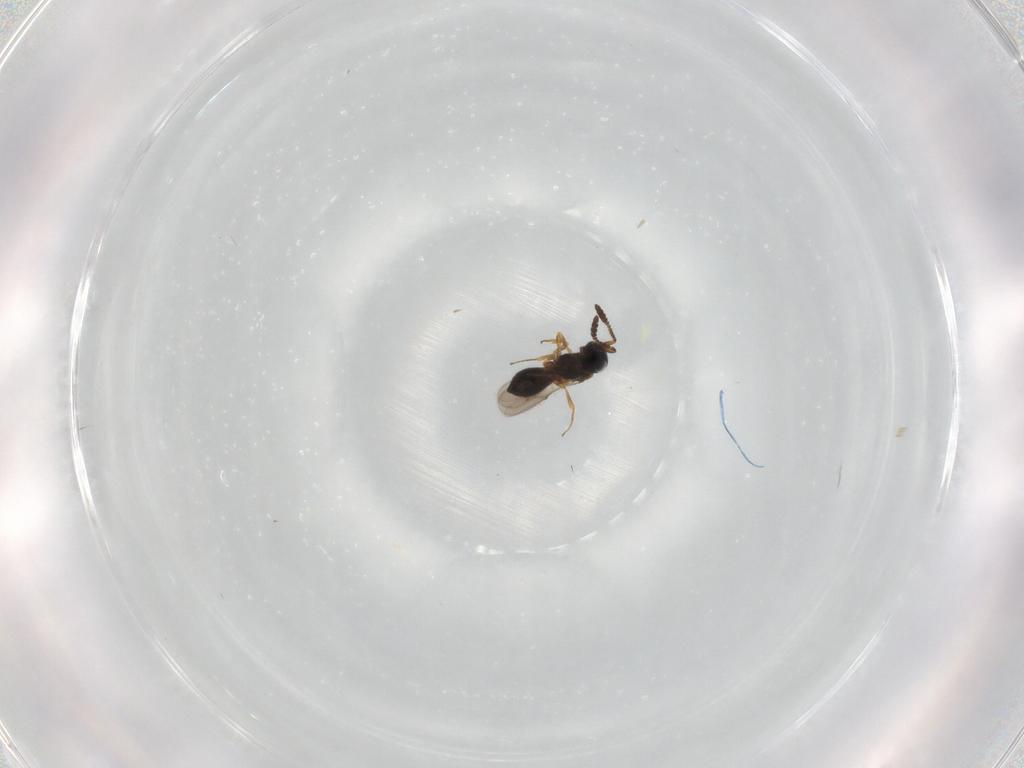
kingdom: Animalia
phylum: Arthropoda
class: Insecta
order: Hymenoptera
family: Scelionidae
